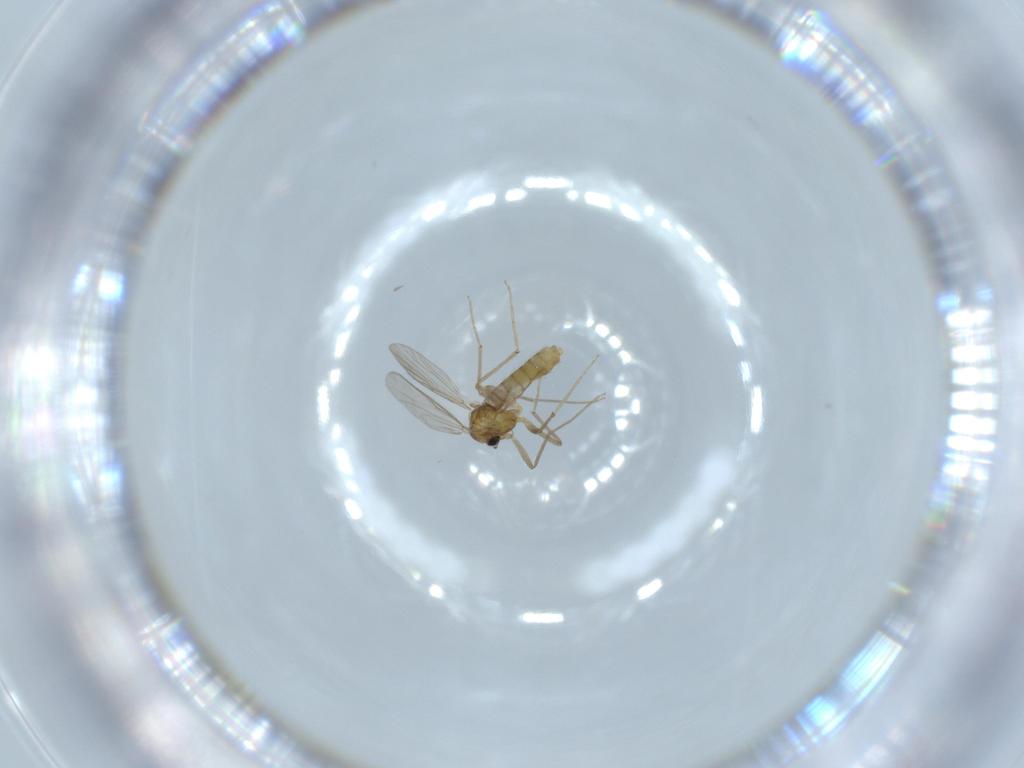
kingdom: Animalia
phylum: Arthropoda
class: Insecta
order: Diptera
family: Chironomidae
